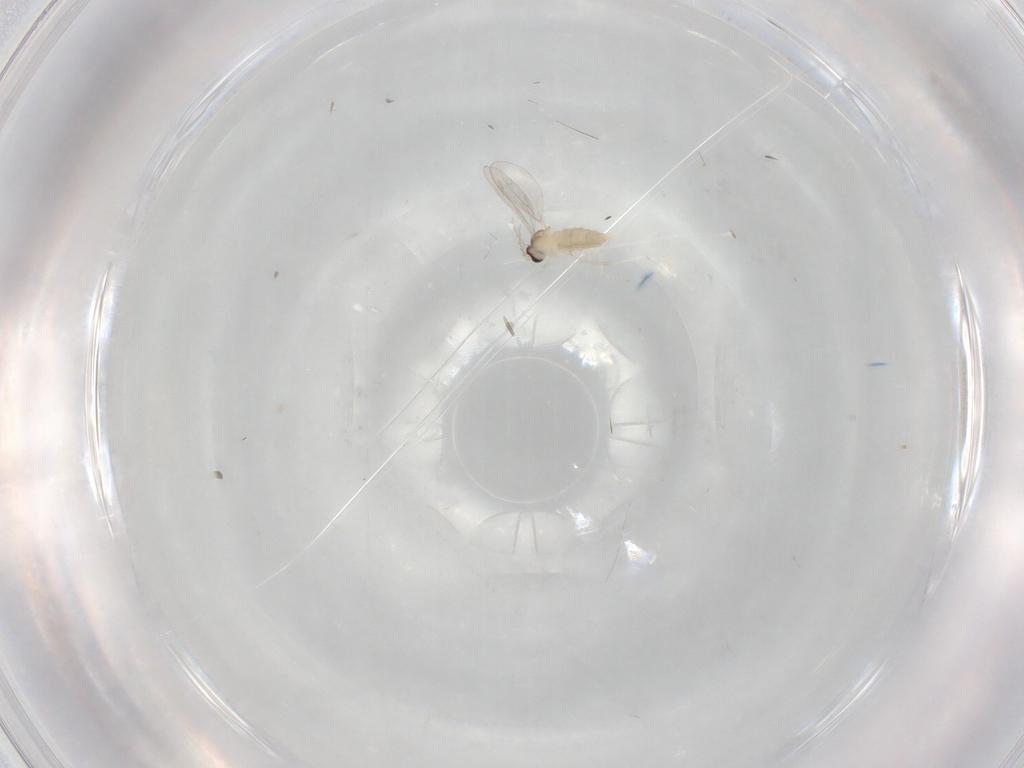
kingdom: Animalia
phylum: Arthropoda
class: Insecta
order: Diptera
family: Cecidomyiidae
